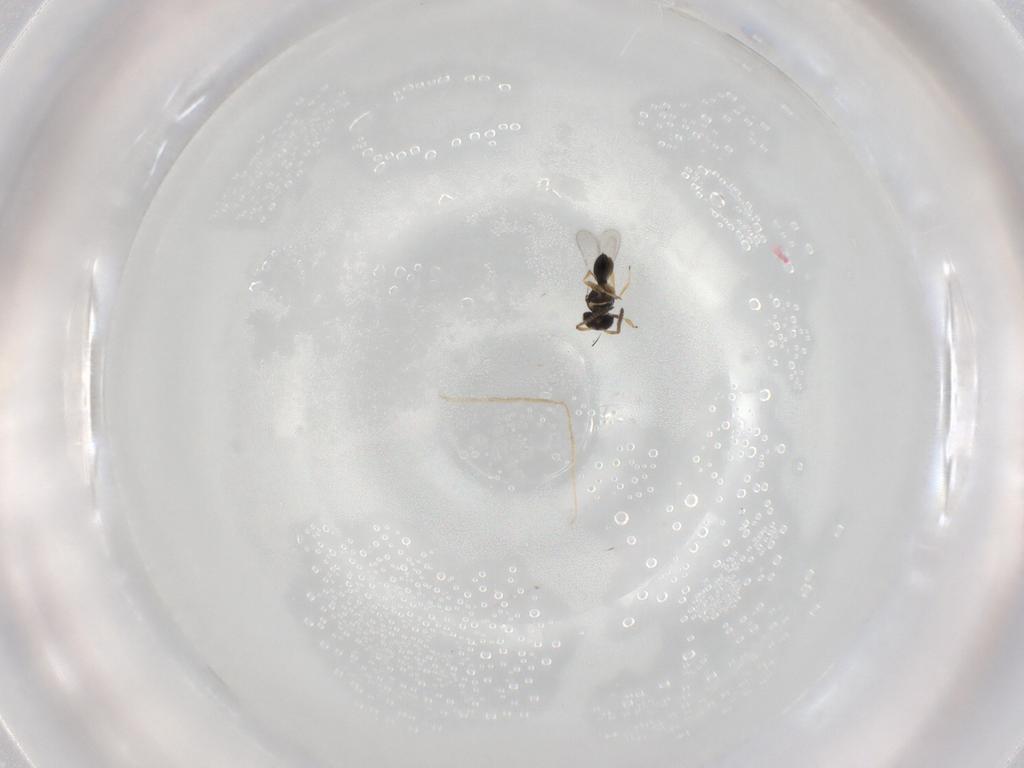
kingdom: Animalia
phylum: Arthropoda
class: Insecta
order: Hymenoptera
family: Scelionidae
